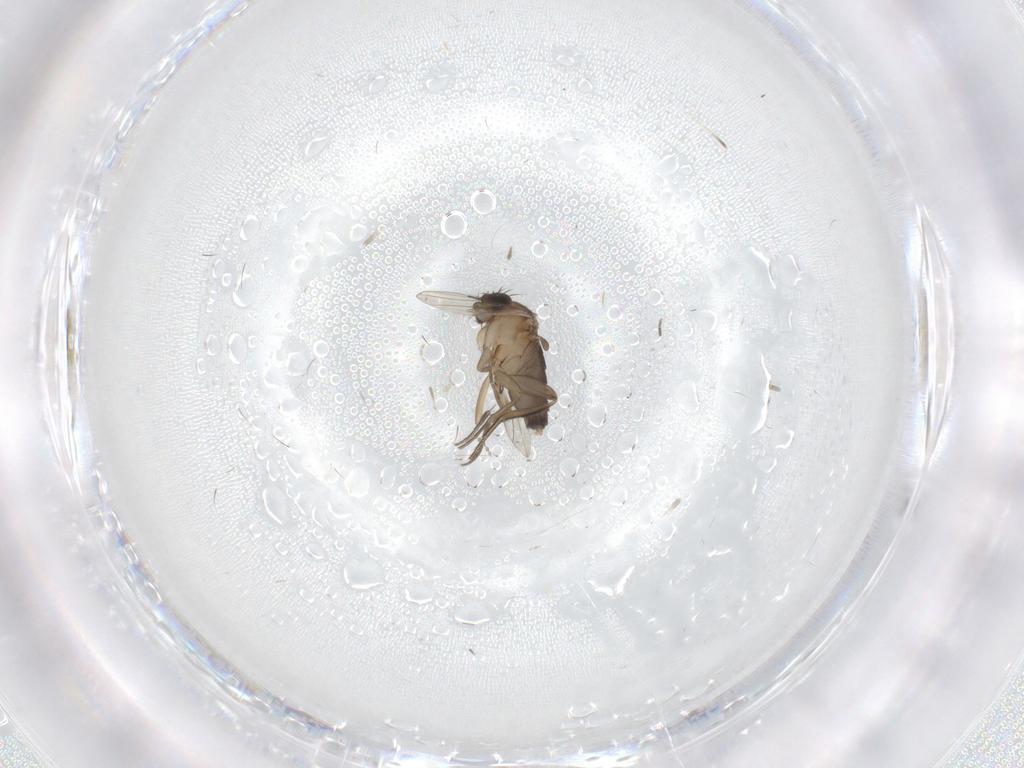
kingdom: Animalia
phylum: Arthropoda
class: Insecta
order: Diptera
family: Phoridae
